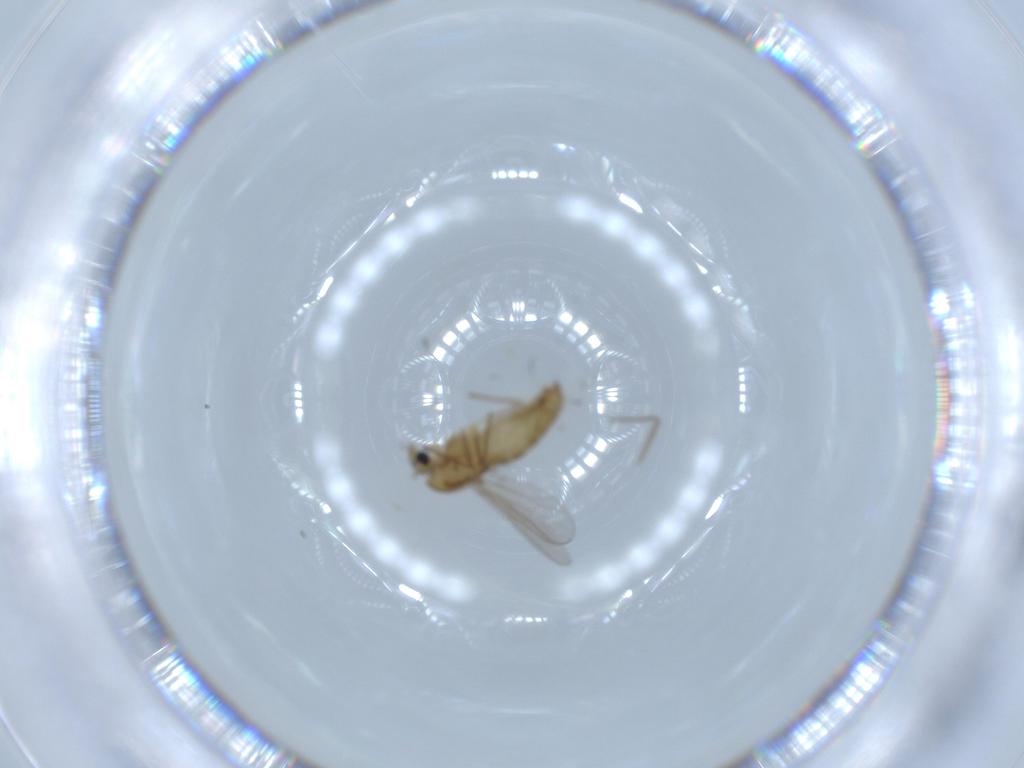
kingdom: Animalia
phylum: Arthropoda
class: Insecta
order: Diptera
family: Chironomidae
